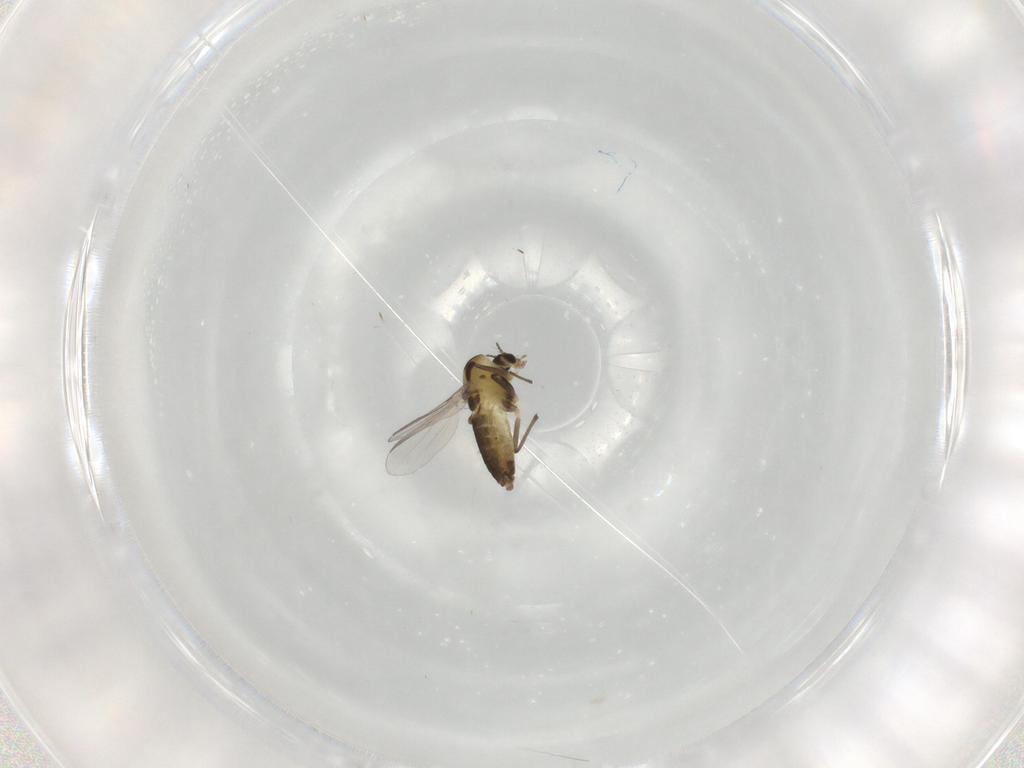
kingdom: Animalia
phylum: Arthropoda
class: Insecta
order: Diptera
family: Chironomidae
